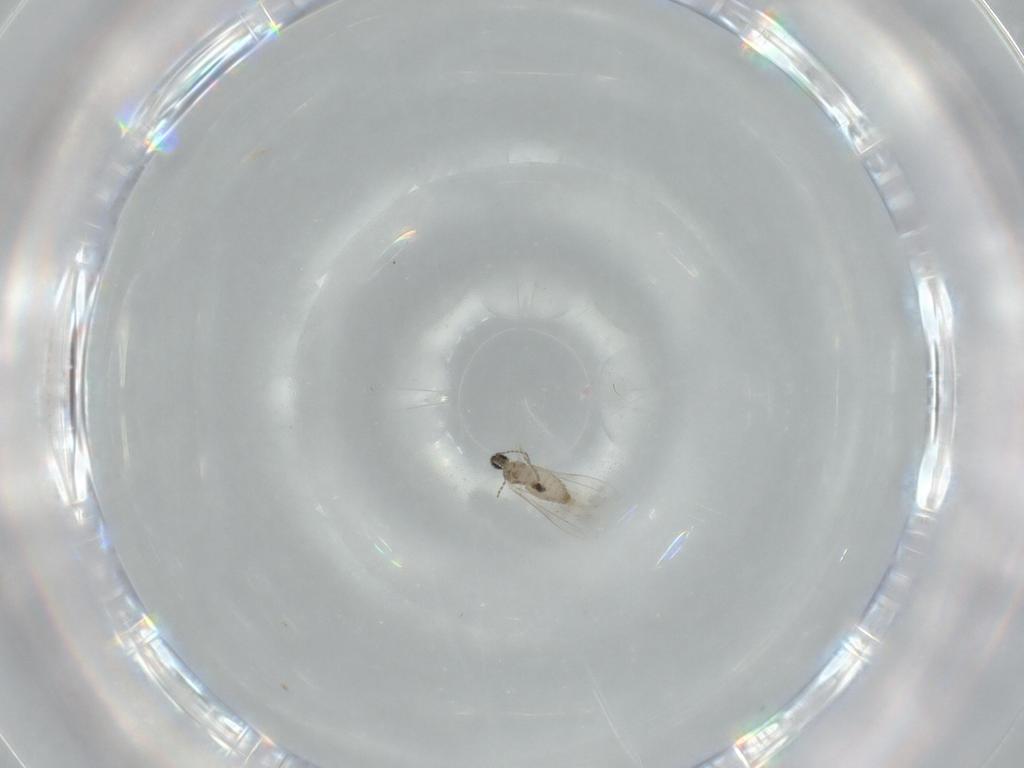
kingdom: Animalia
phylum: Arthropoda
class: Insecta
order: Diptera
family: Cecidomyiidae
